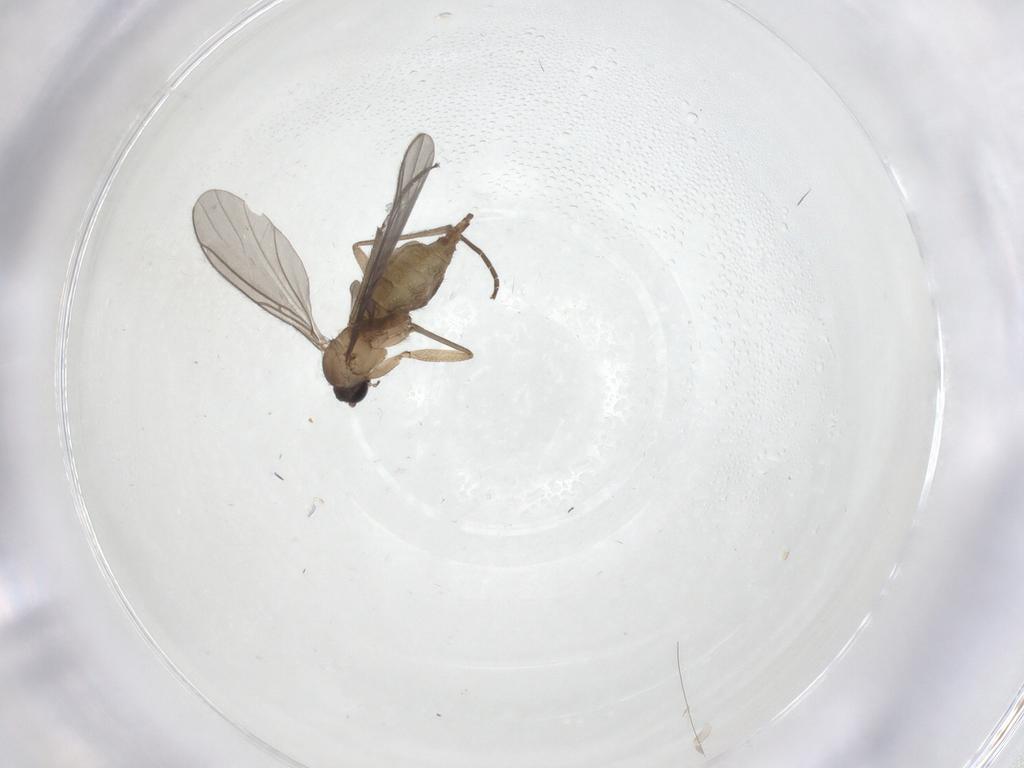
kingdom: Animalia
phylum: Arthropoda
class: Insecta
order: Diptera
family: Sciaridae
